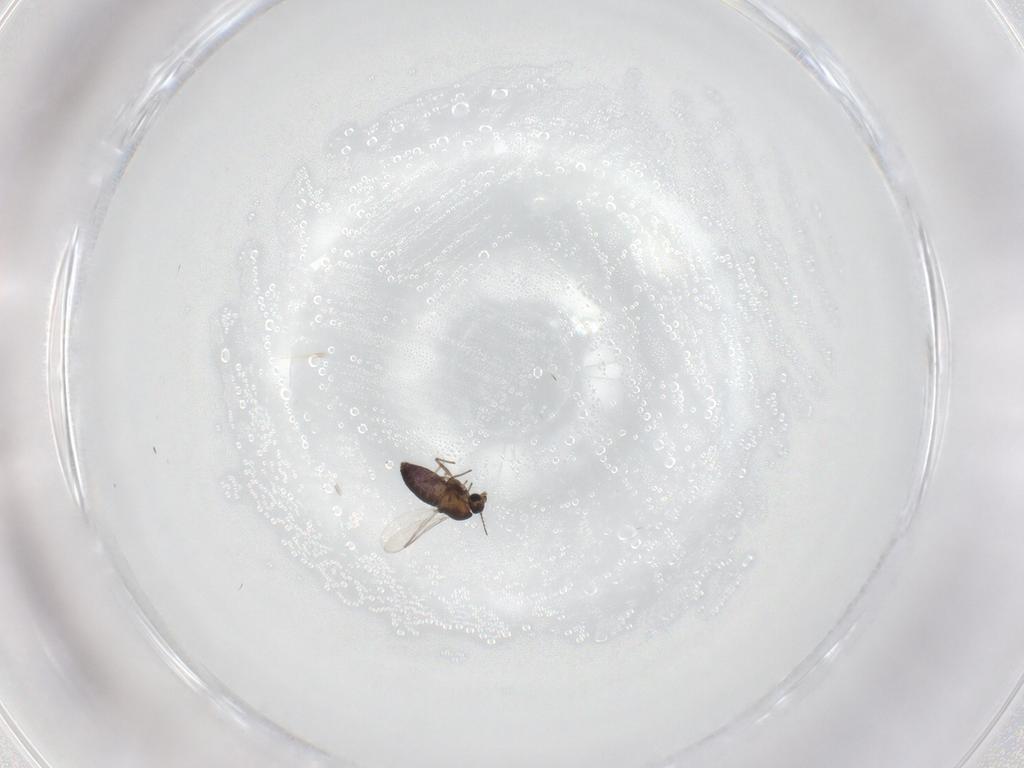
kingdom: Animalia
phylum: Arthropoda
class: Insecta
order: Diptera
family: Chironomidae
